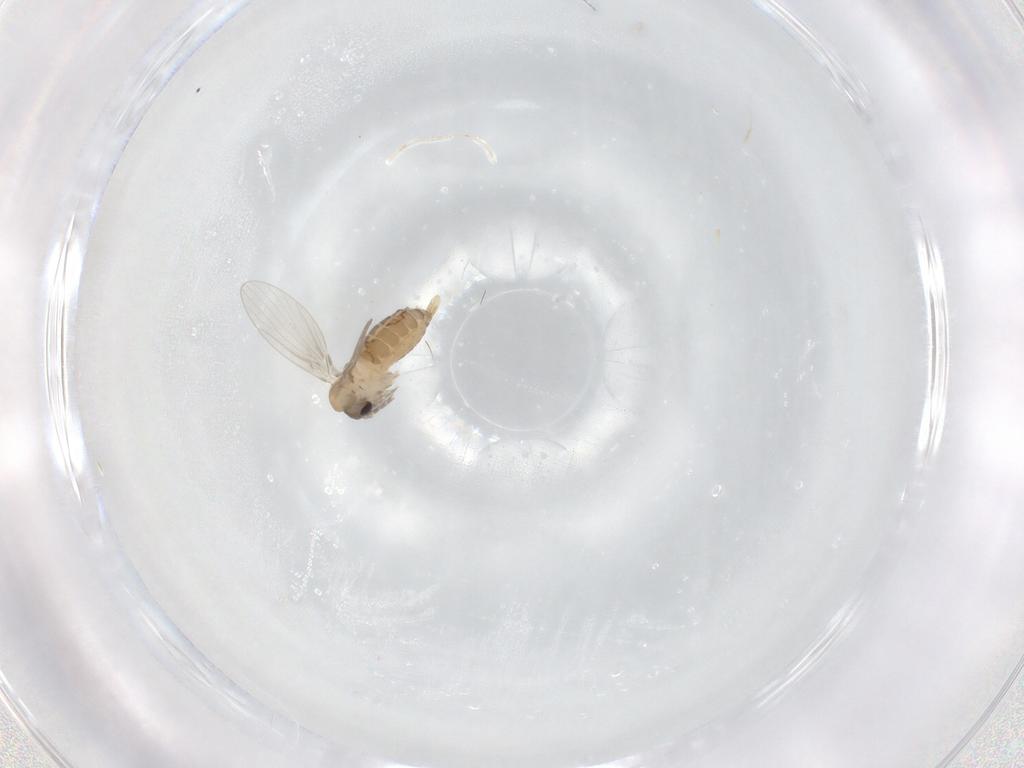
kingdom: Animalia
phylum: Arthropoda
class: Insecta
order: Diptera
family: Psychodidae
